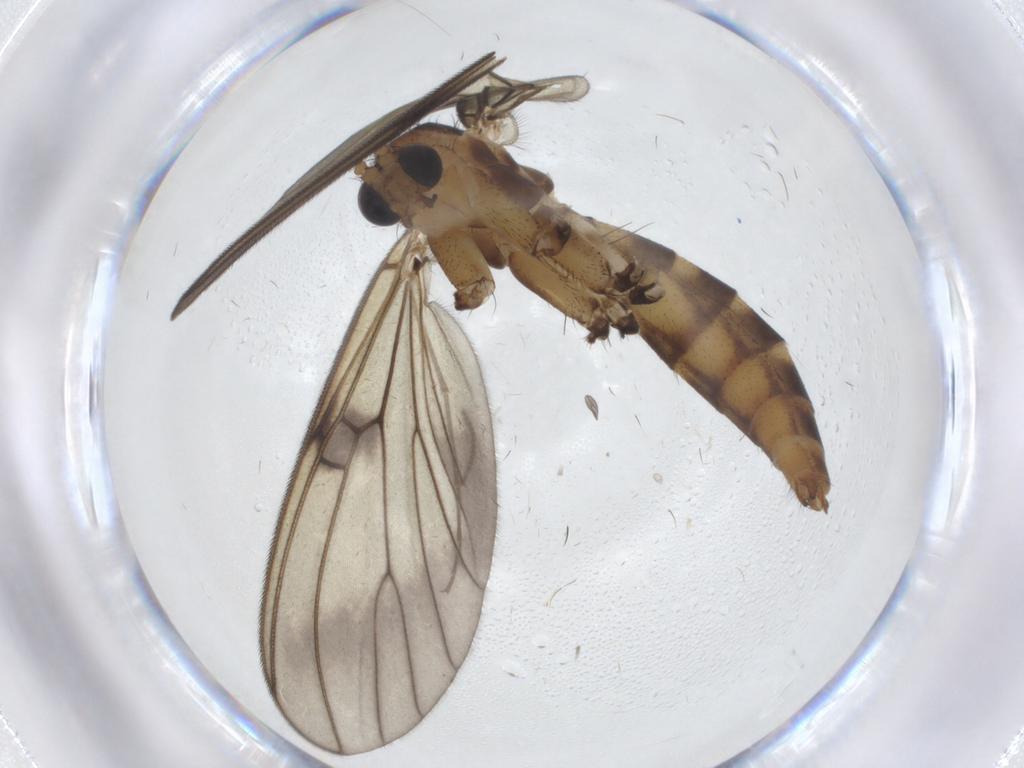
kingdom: Animalia
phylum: Arthropoda
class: Insecta
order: Diptera
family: Mycetophilidae
